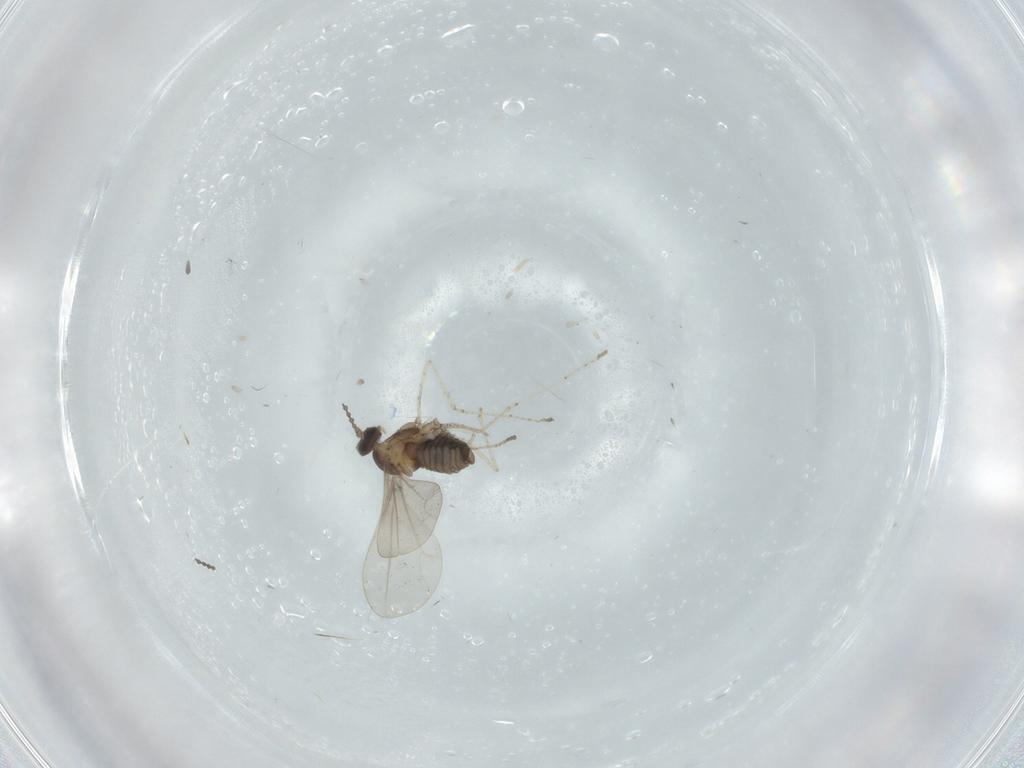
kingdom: Animalia
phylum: Arthropoda
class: Insecta
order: Diptera
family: Cecidomyiidae
